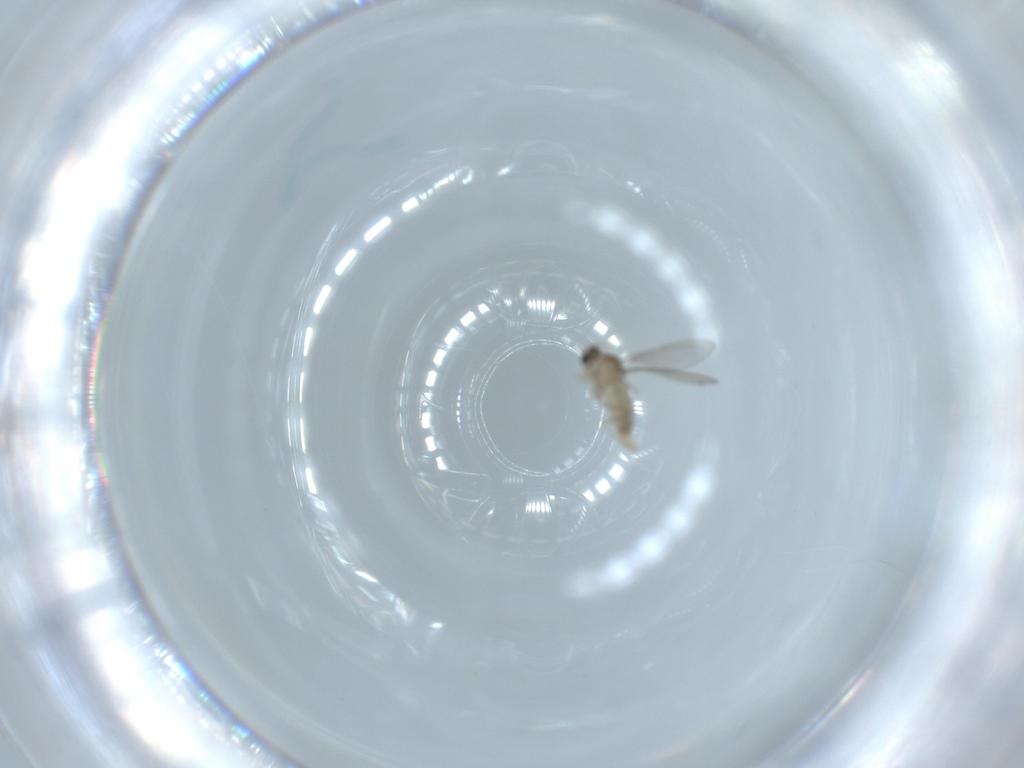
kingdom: Animalia
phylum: Arthropoda
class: Insecta
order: Diptera
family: Cecidomyiidae
